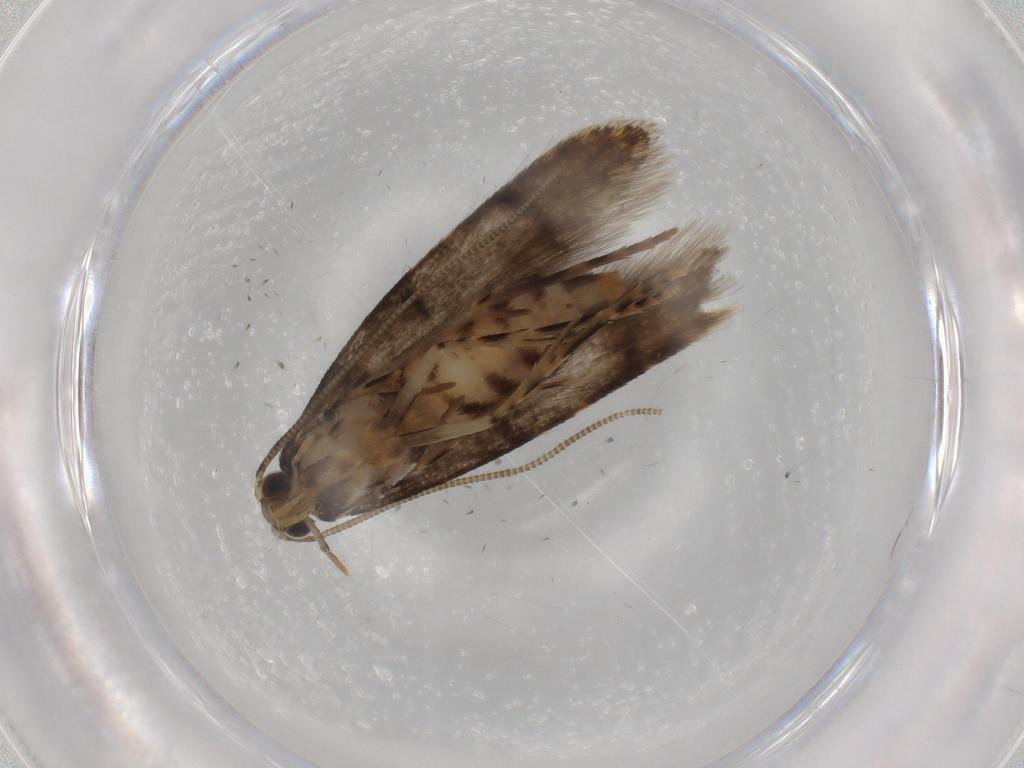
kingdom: Animalia
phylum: Arthropoda
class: Insecta
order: Lepidoptera
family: Tineidae
